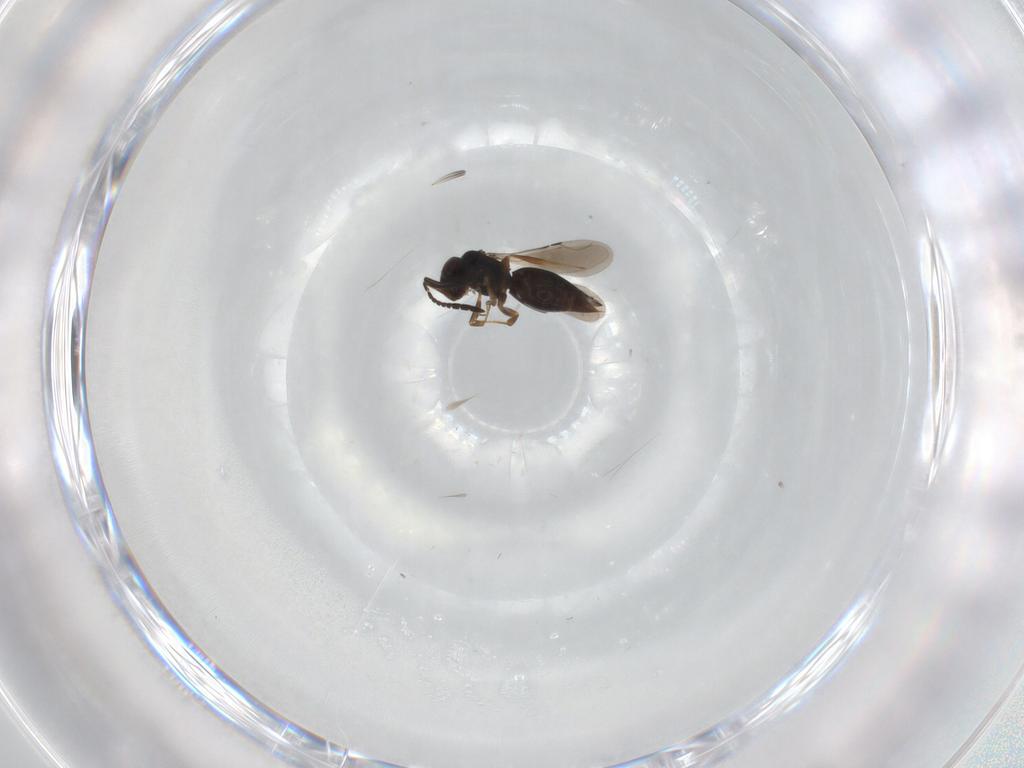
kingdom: Animalia
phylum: Arthropoda
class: Insecta
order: Hymenoptera
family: Ceraphronidae
